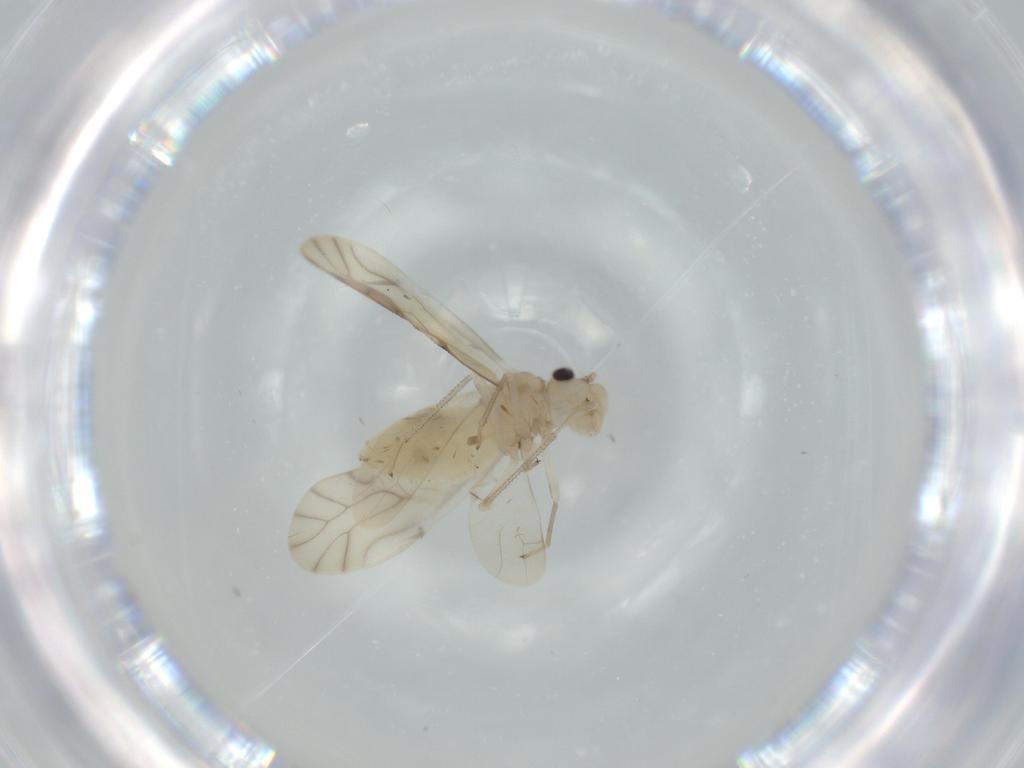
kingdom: Animalia
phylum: Arthropoda
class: Insecta
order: Psocodea
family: Caeciliusidae
